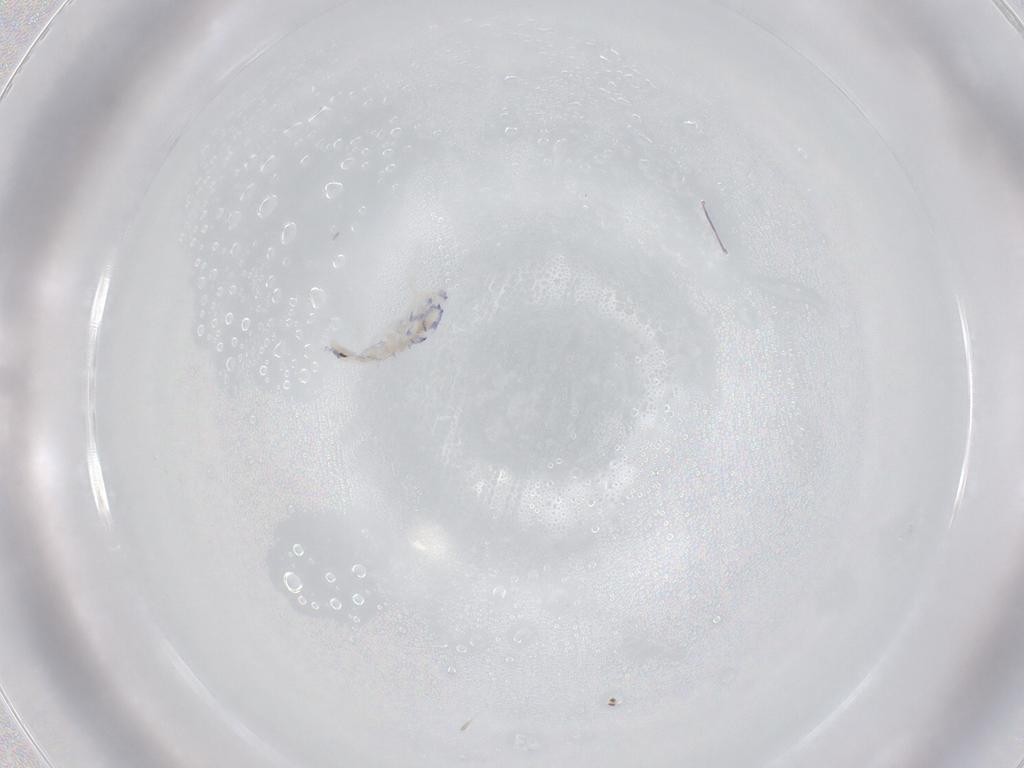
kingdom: Animalia
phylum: Arthropoda
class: Collembola
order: Entomobryomorpha
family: Entomobryidae
